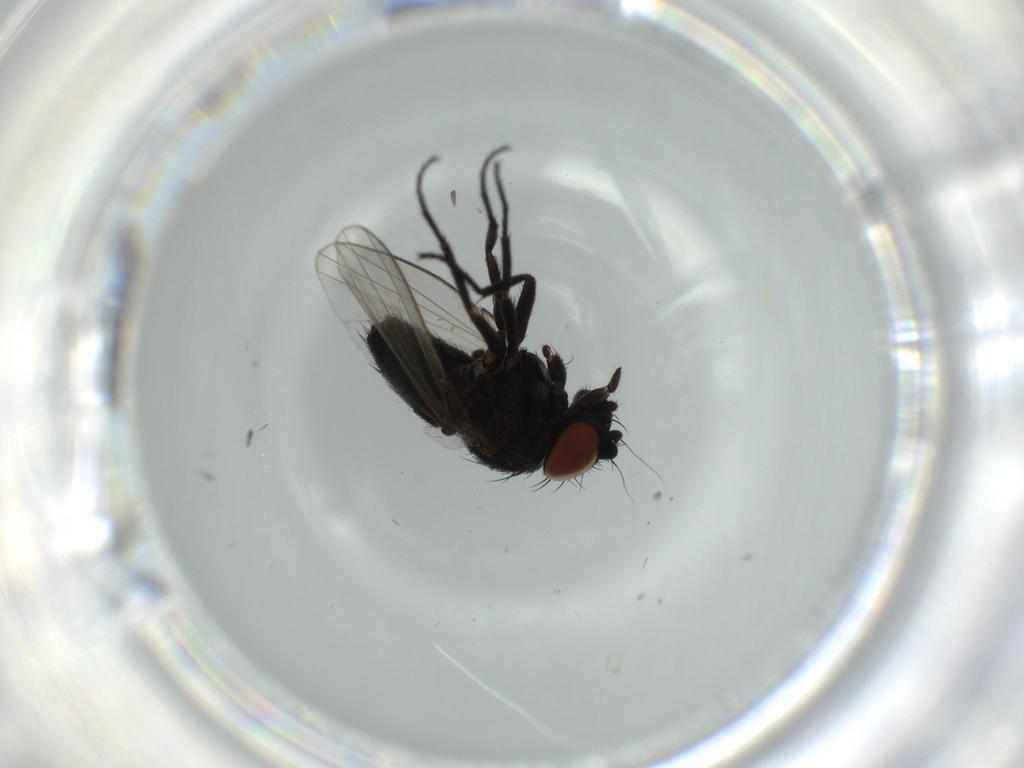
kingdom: Animalia
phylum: Arthropoda
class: Insecta
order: Diptera
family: Sciaridae
